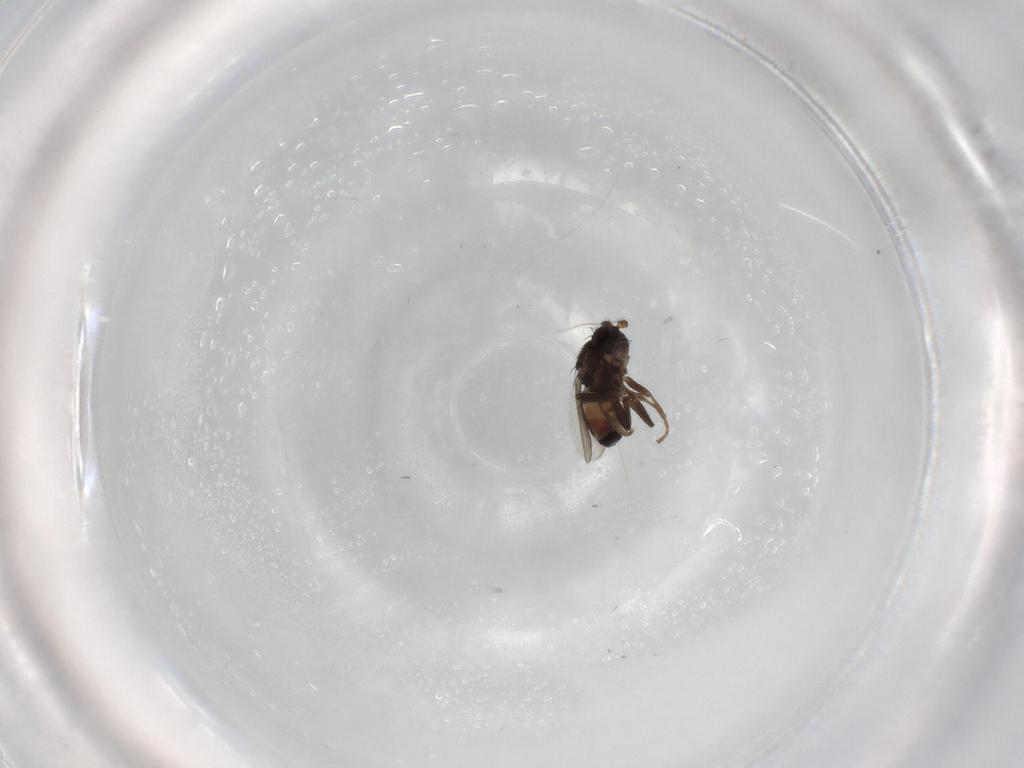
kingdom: Animalia
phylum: Arthropoda
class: Insecta
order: Diptera
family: Sphaeroceridae
